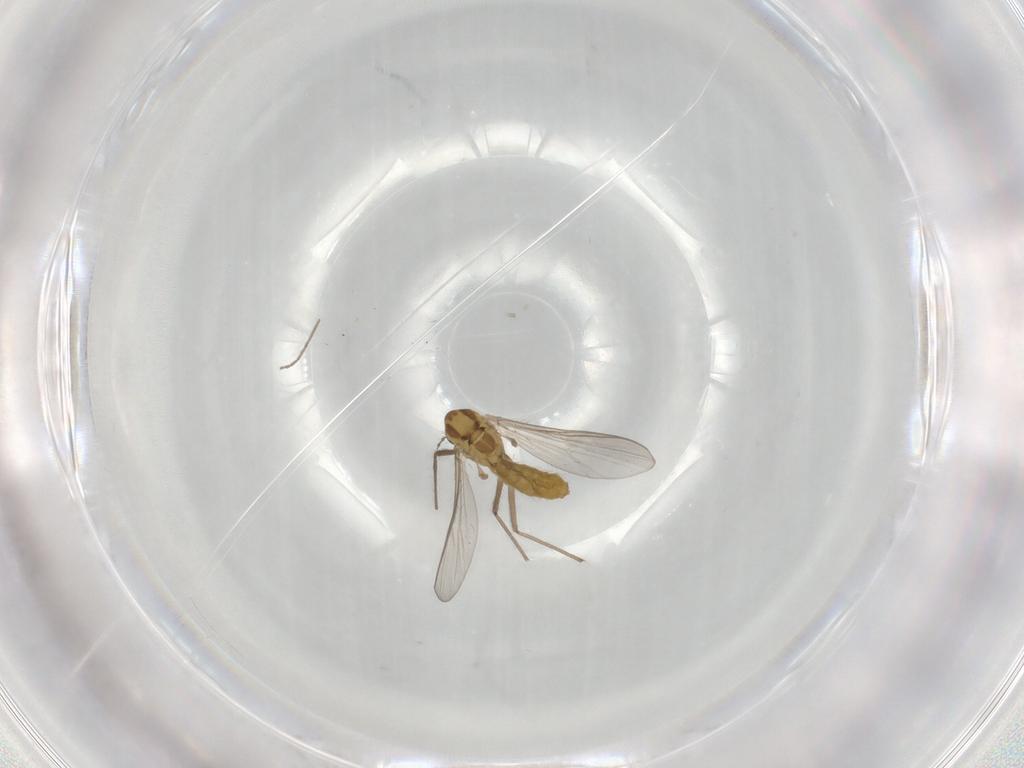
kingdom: Animalia
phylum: Arthropoda
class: Insecta
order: Diptera
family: Chironomidae
